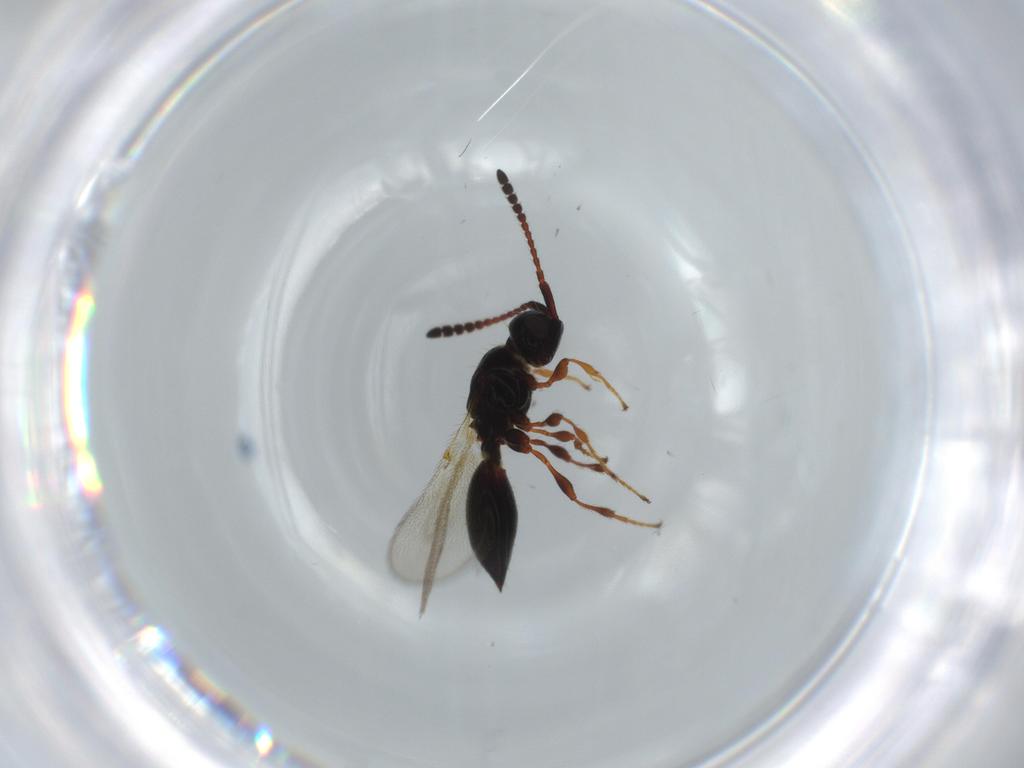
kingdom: Animalia
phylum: Arthropoda
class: Insecta
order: Hymenoptera
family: Diapriidae
